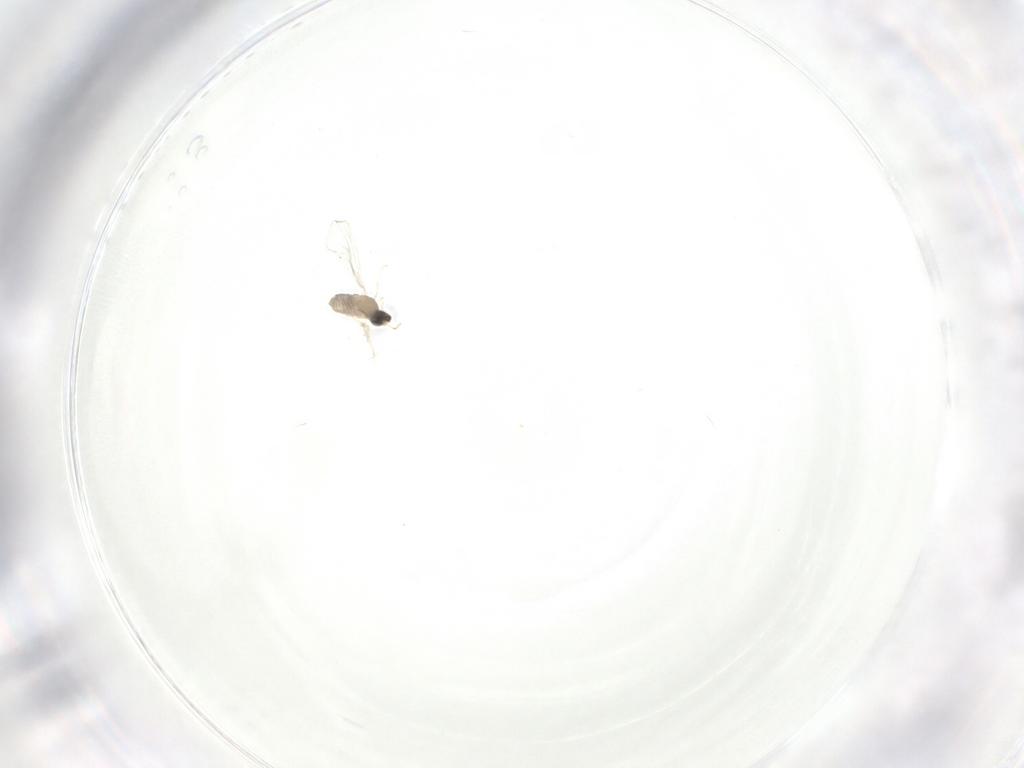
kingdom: Animalia
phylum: Arthropoda
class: Insecta
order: Diptera
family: Cecidomyiidae
